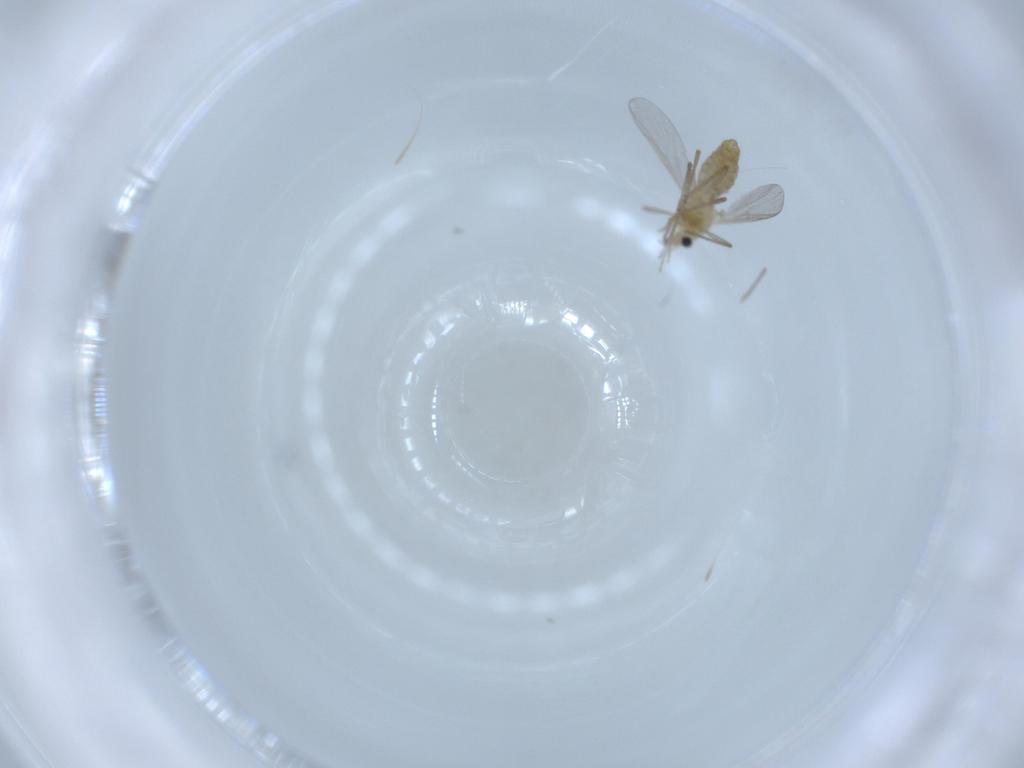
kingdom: Animalia
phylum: Arthropoda
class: Insecta
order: Diptera
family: Chironomidae
